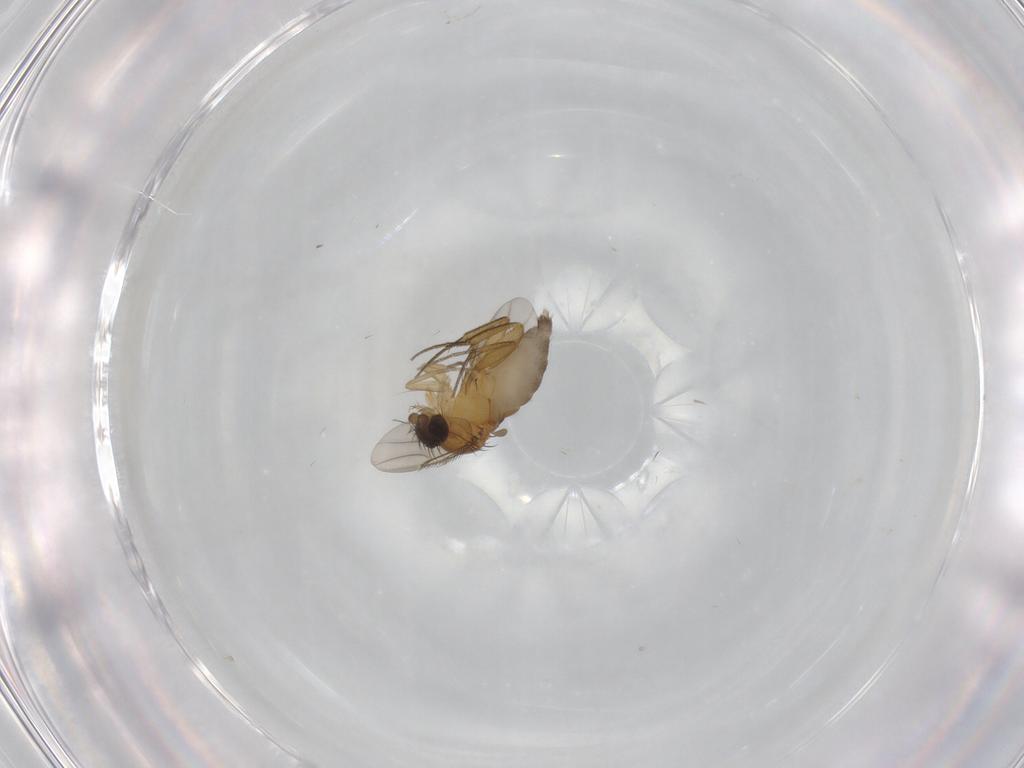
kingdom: Animalia
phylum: Arthropoda
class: Insecta
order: Diptera
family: Phoridae
